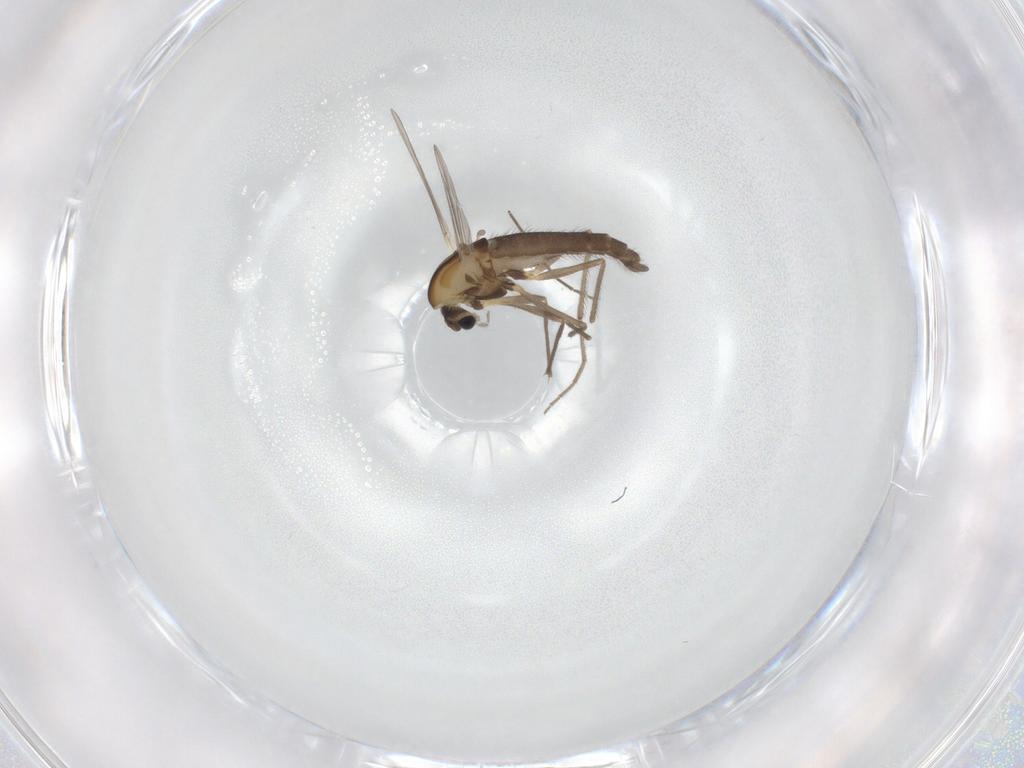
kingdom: Animalia
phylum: Arthropoda
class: Insecta
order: Diptera
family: Chironomidae
